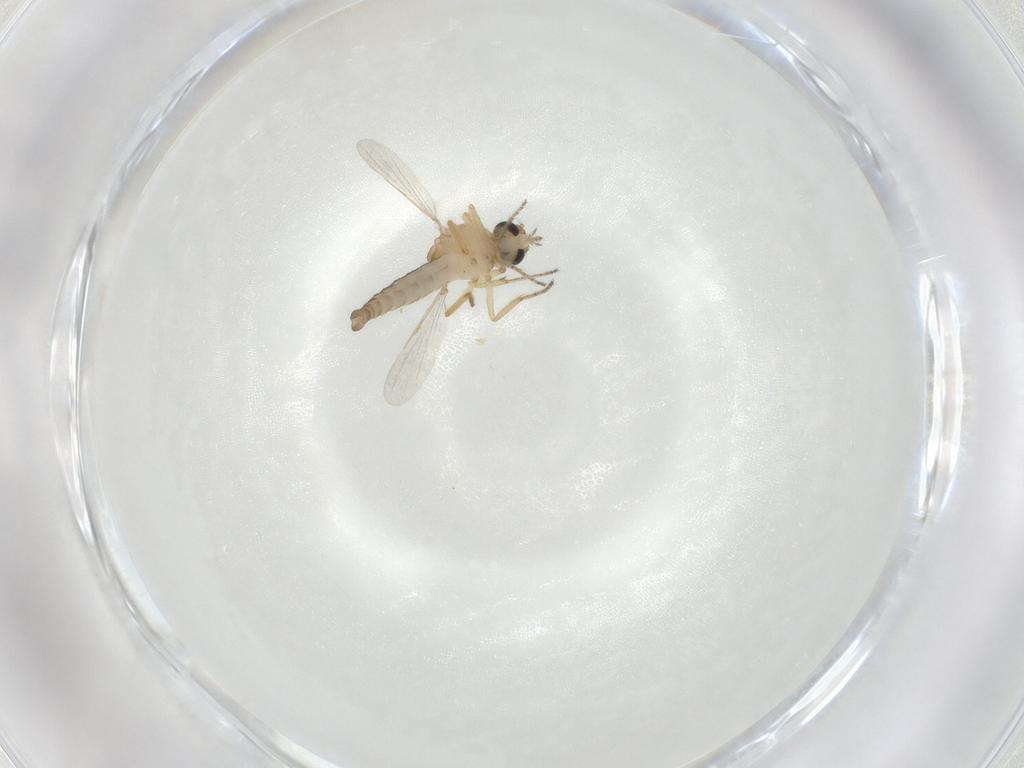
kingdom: Animalia
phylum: Arthropoda
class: Insecta
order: Diptera
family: Ceratopogonidae
